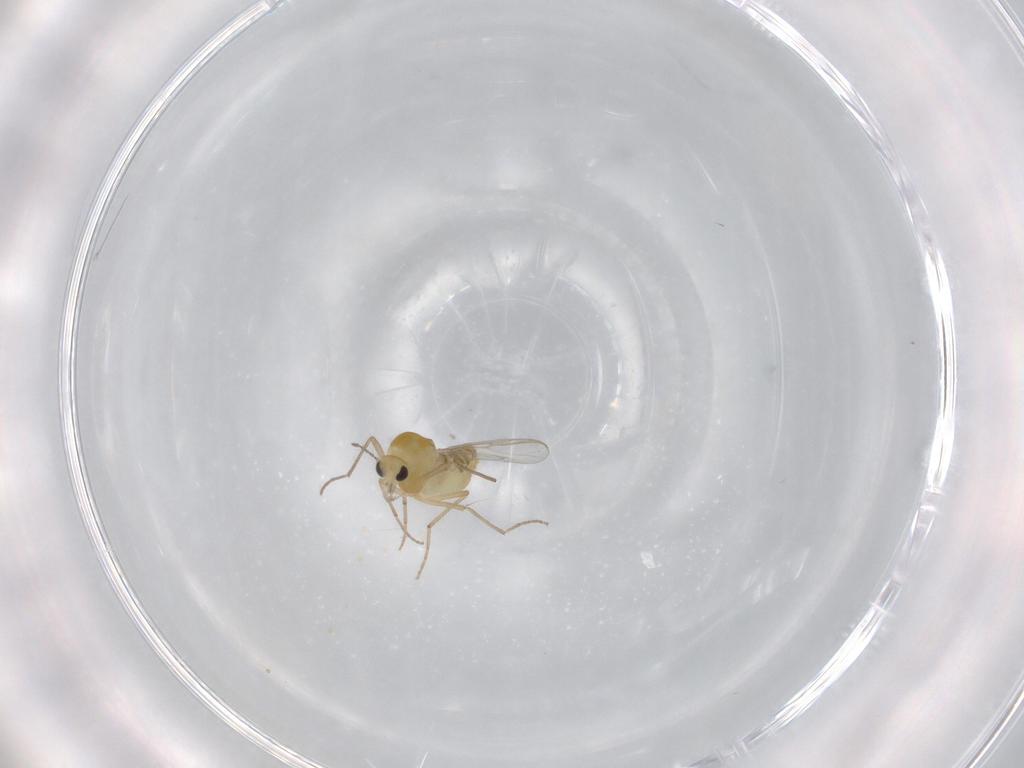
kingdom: Animalia
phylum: Arthropoda
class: Insecta
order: Diptera
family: Chironomidae
